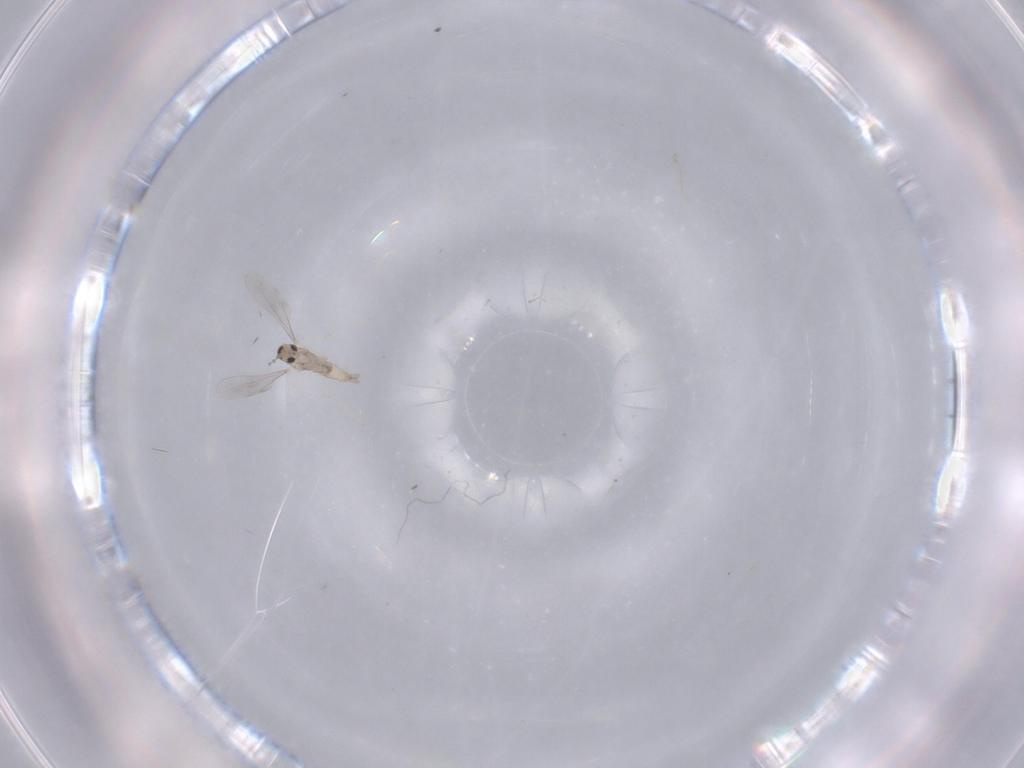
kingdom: Animalia
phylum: Arthropoda
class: Insecta
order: Diptera
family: Cecidomyiidae
